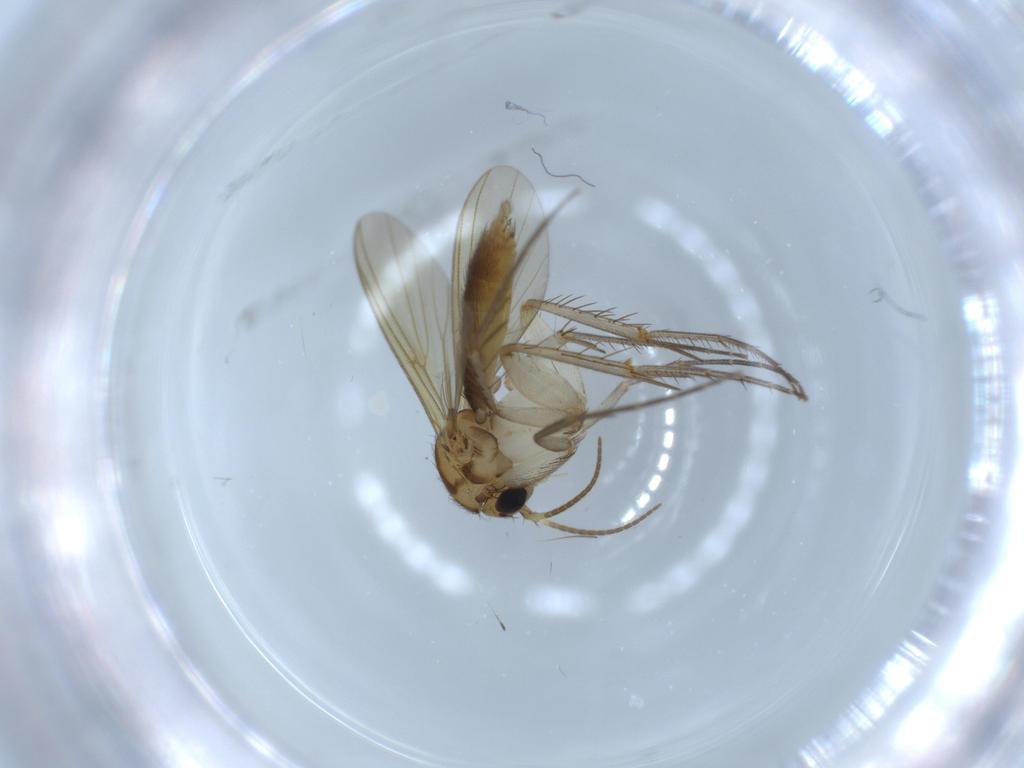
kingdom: Animalia
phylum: Arthropoda
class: Insecta
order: Diptera
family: Mycetophilidae
